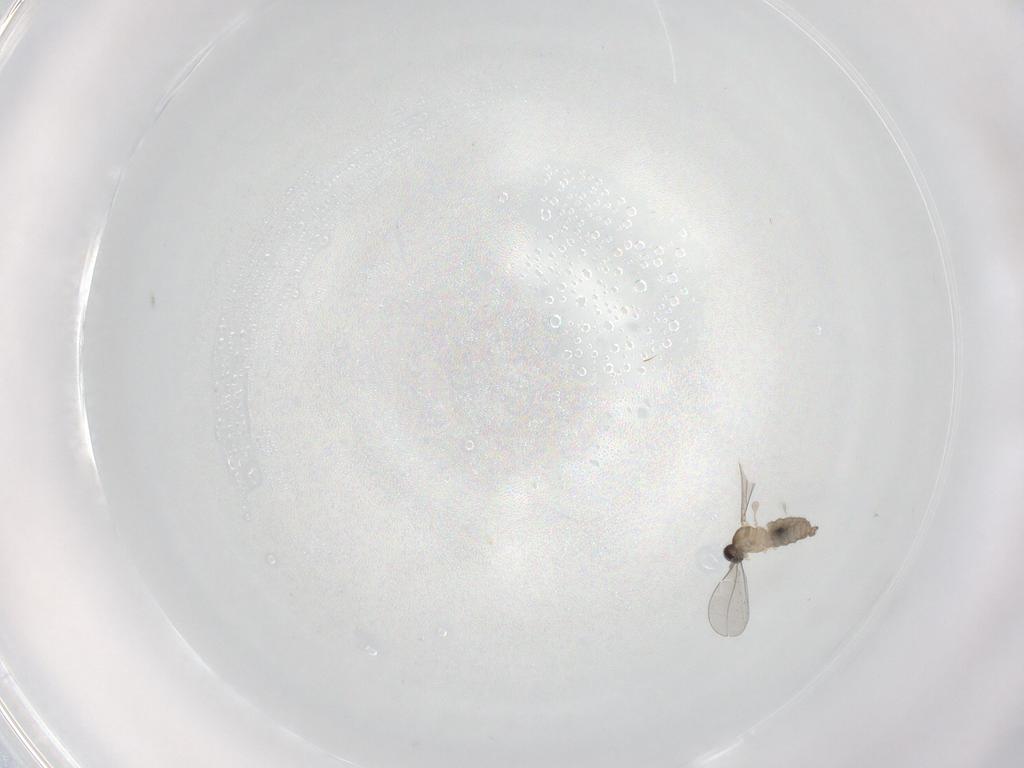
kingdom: Animalia
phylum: Arthropoda
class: Insecta
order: Diptera
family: Cecidomyiidae
